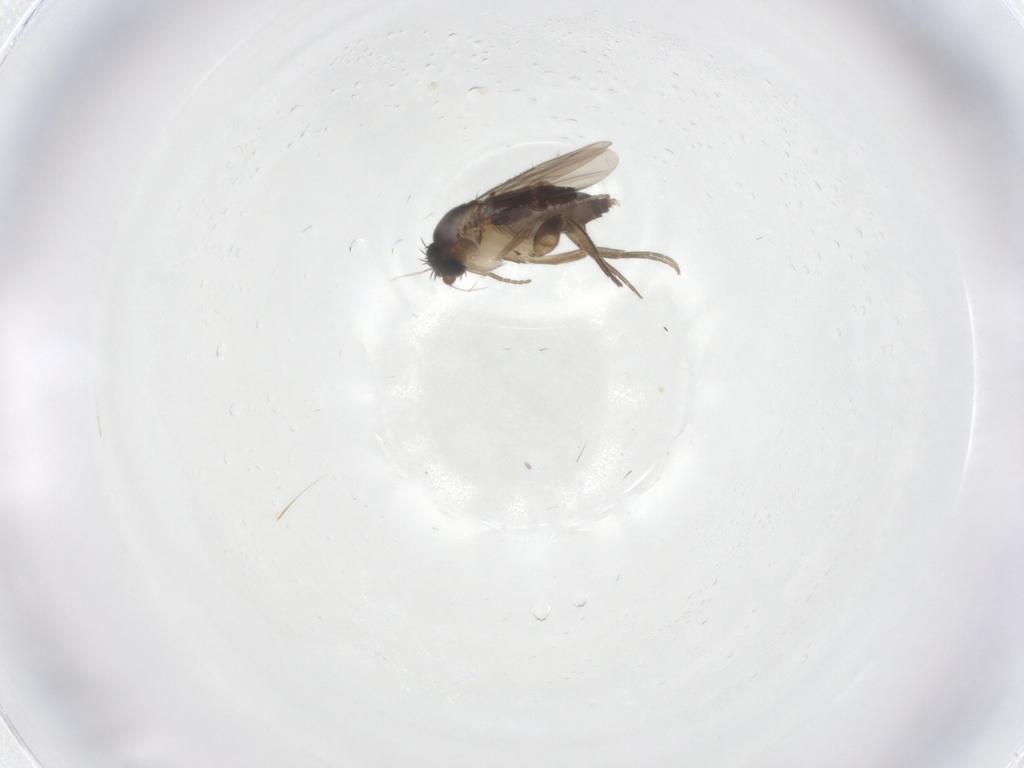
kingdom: Animalia
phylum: Arthropoda
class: Insecta
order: Diptera
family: Phoridae
